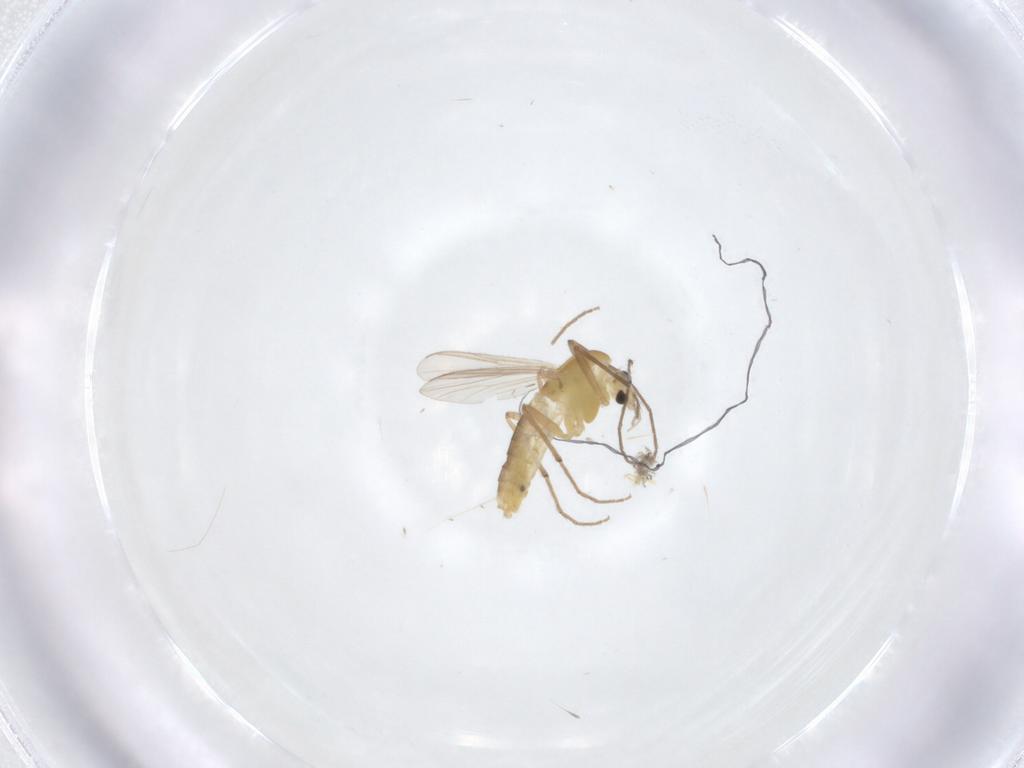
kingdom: Animalia
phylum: Arthropoda
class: Insecta
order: Diptera
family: Chironomidae
